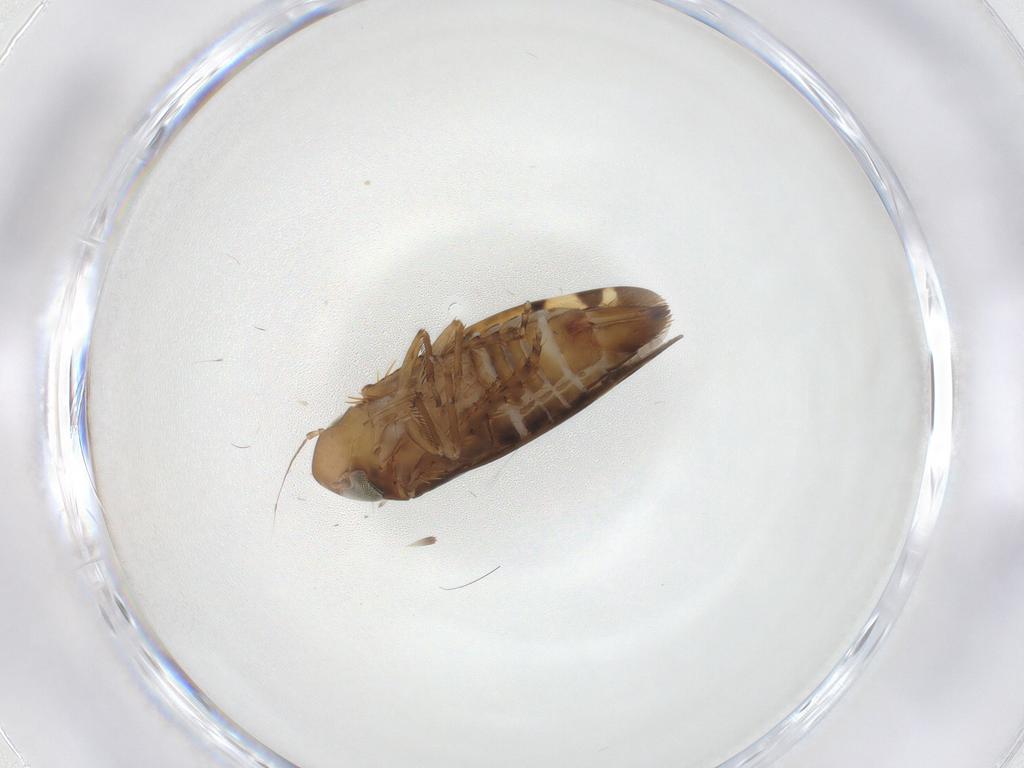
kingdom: Animalia
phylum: Arthropoda
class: Insecta
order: Hemiptera
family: Cicadellidae
